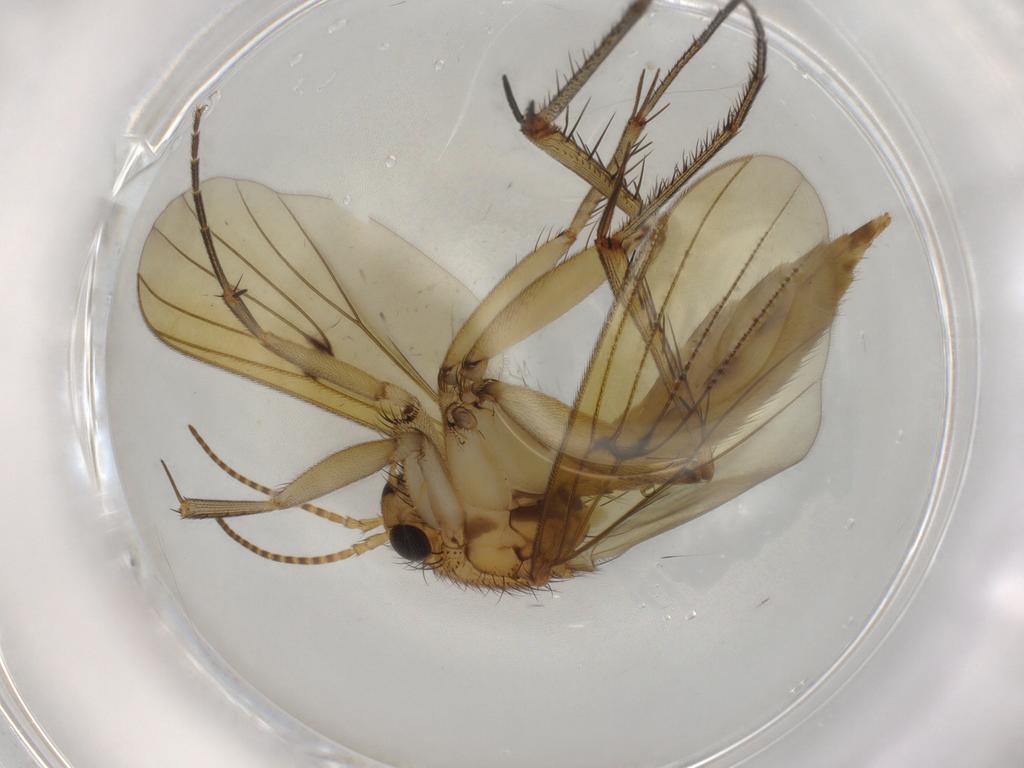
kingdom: Animalia
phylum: Arthropoda
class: Insecta
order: Diptera
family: Mycetophilidae
